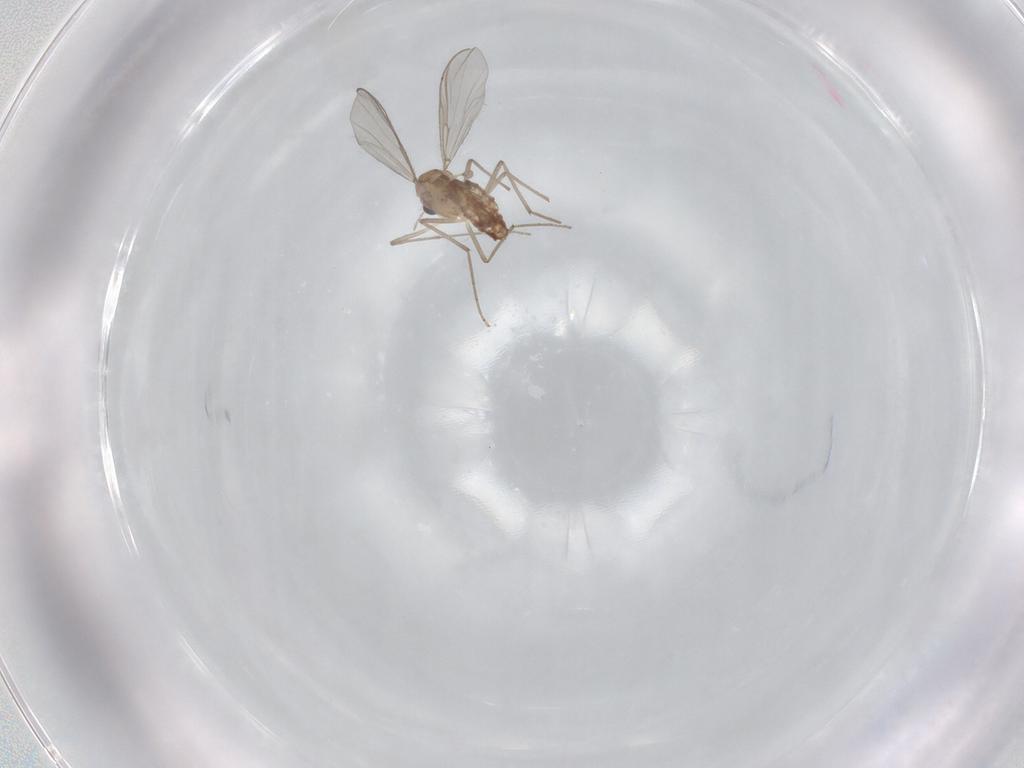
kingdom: Animalia
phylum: Arthropoda
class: Insecta
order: Diptera
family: Chironomidae
